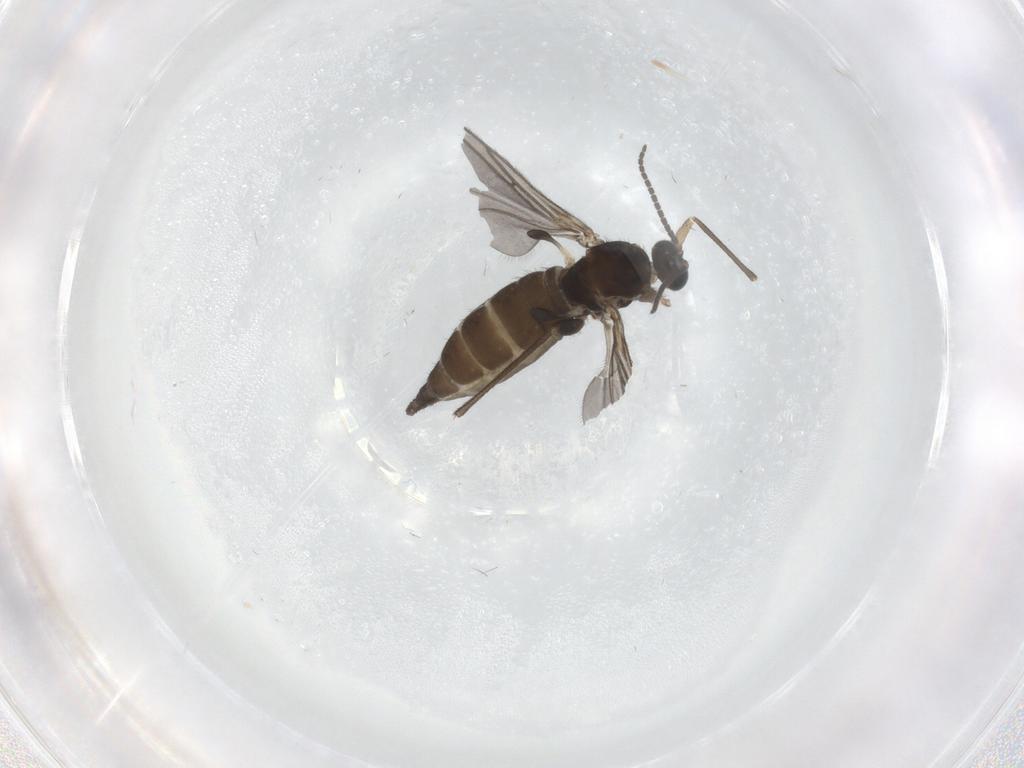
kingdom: Animalia
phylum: Arthropoda
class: Insecta
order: Diptera
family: Sciaridae
